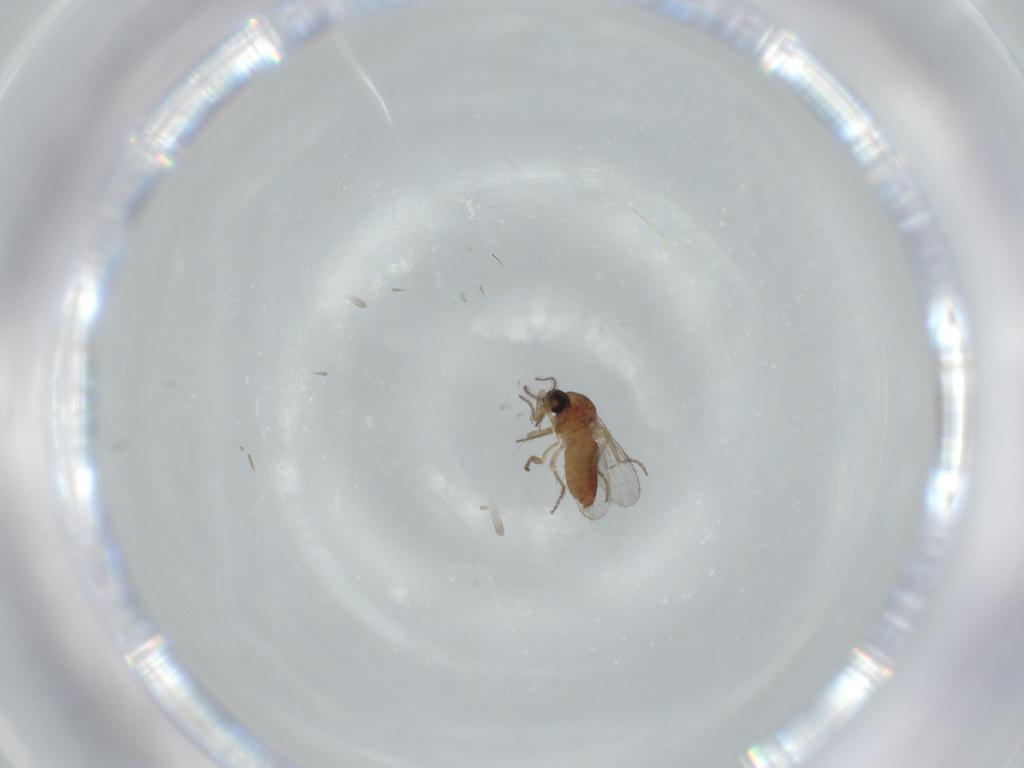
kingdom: Animalia
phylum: Arthropoda
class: Insecta
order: Diptera
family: Ceratopogonidae
